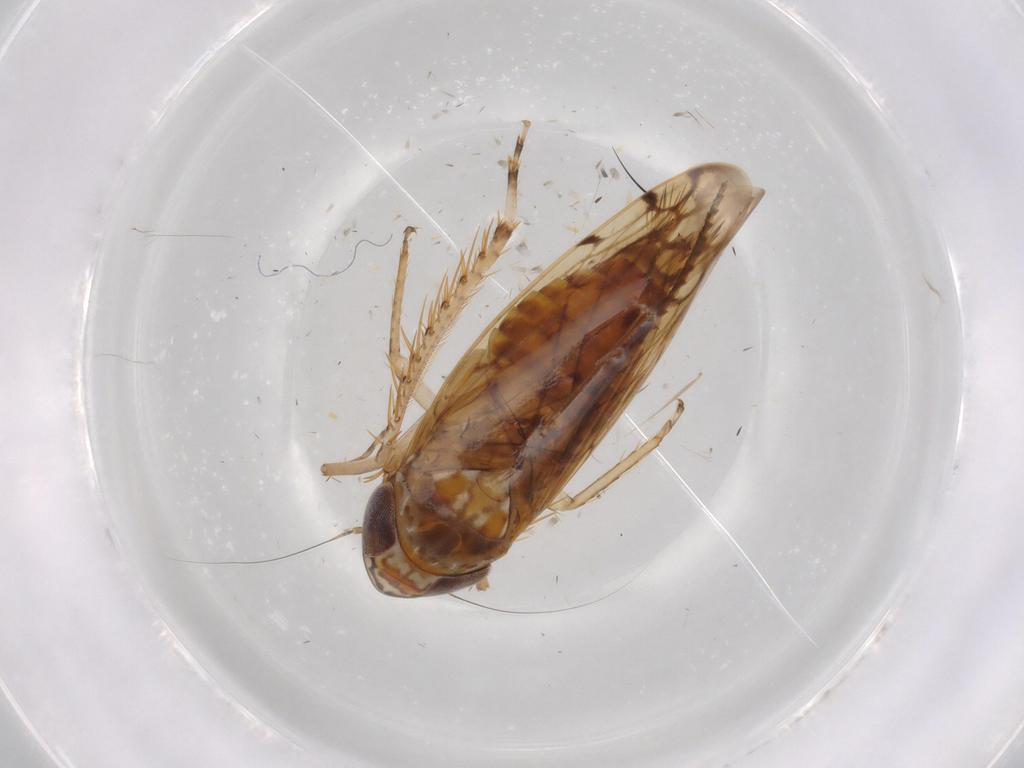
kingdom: Animalia
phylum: Arthropoda
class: Insecta
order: Hemiptera
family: Cicadellidae
